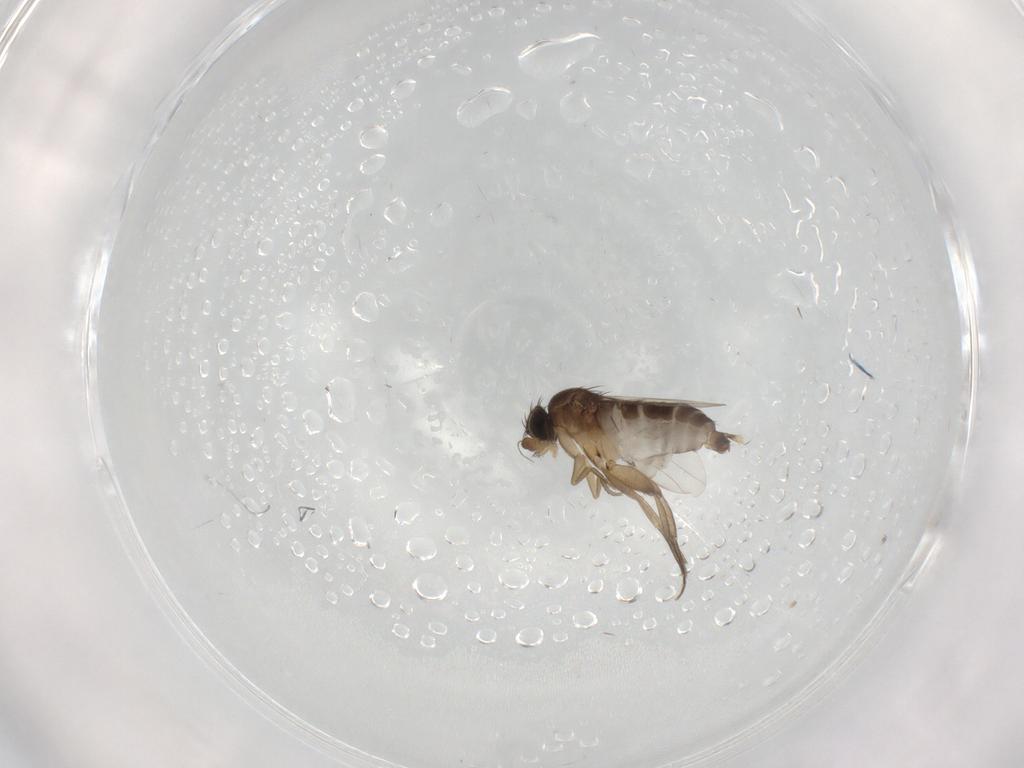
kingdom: Animalia
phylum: Arthropoda
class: Insecta
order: Diptera
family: Phoridae
